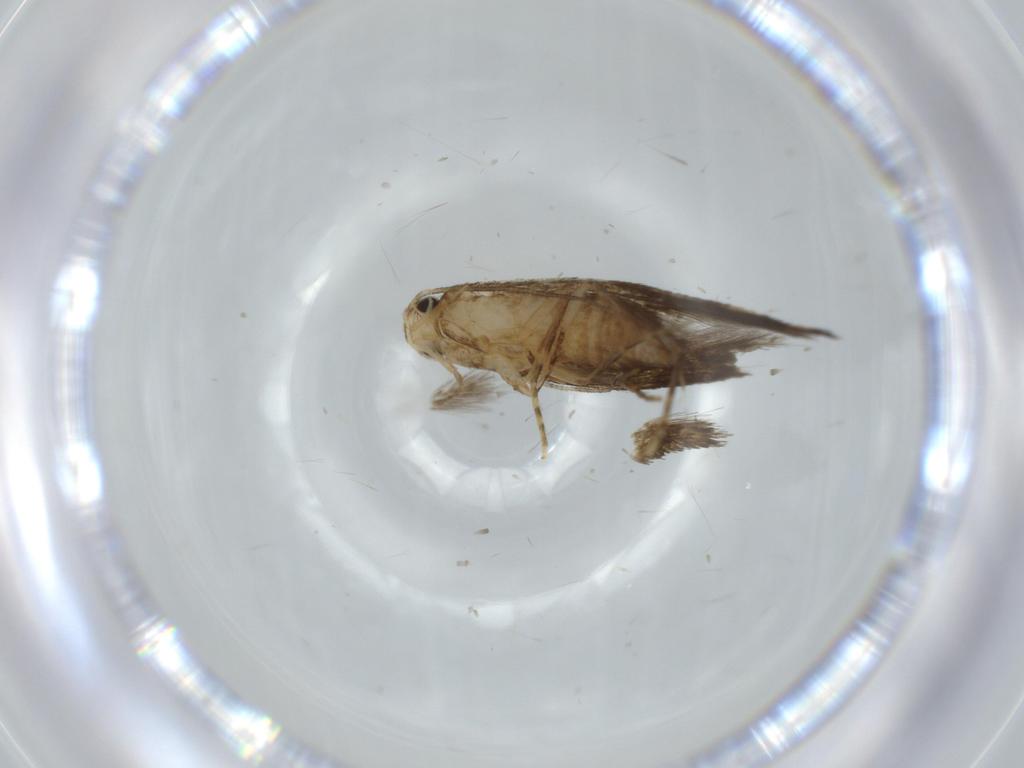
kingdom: Animalia
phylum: Arthropoda
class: Insecta
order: Lepidoptera
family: Tineidae
